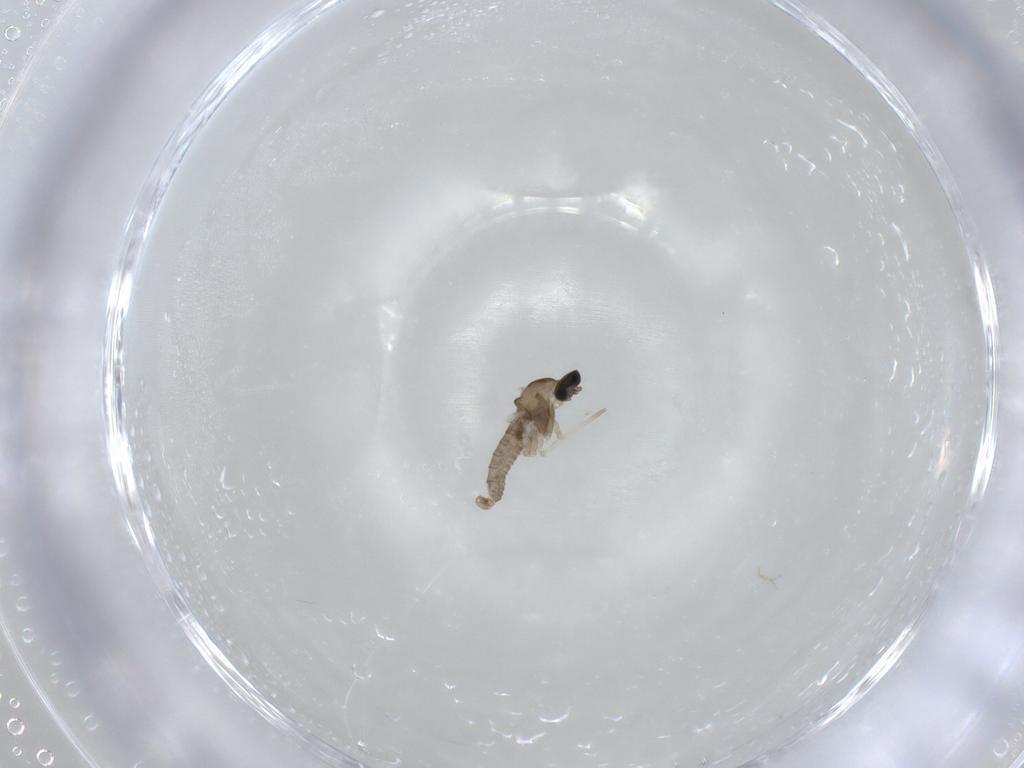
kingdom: Animalia
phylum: Arthropoda
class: Insecta
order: Diptera
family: Cecidomyiidae
